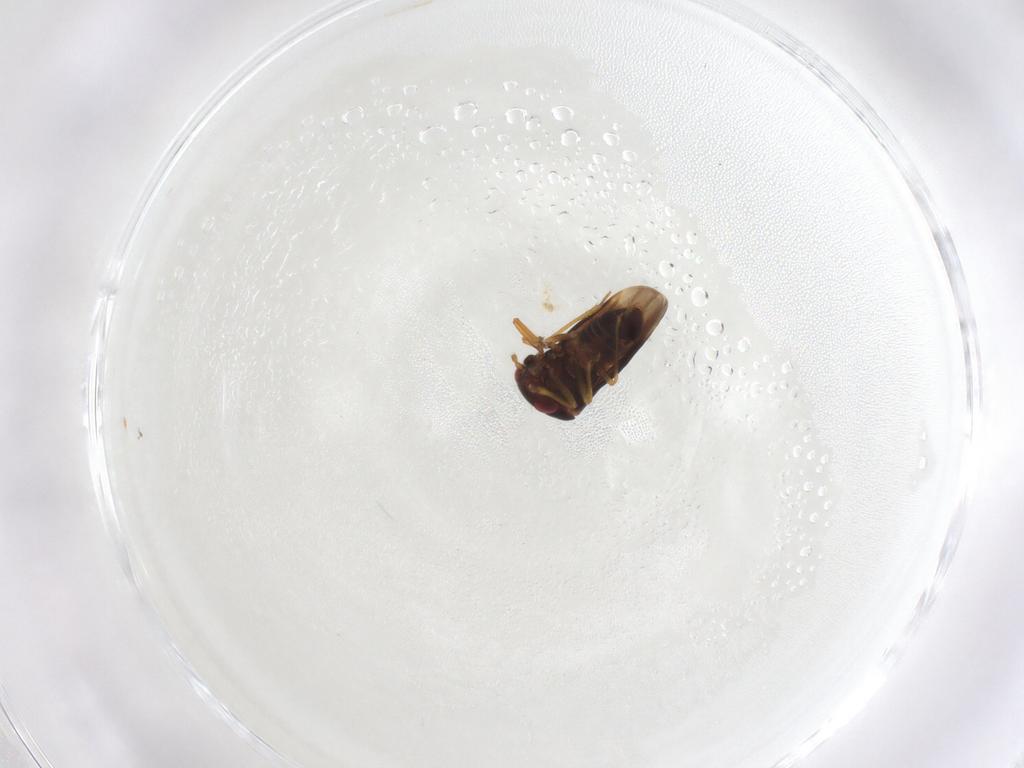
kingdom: Animalia
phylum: Arthropoda
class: Insecta
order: Hemiptera
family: Schizopteridae
